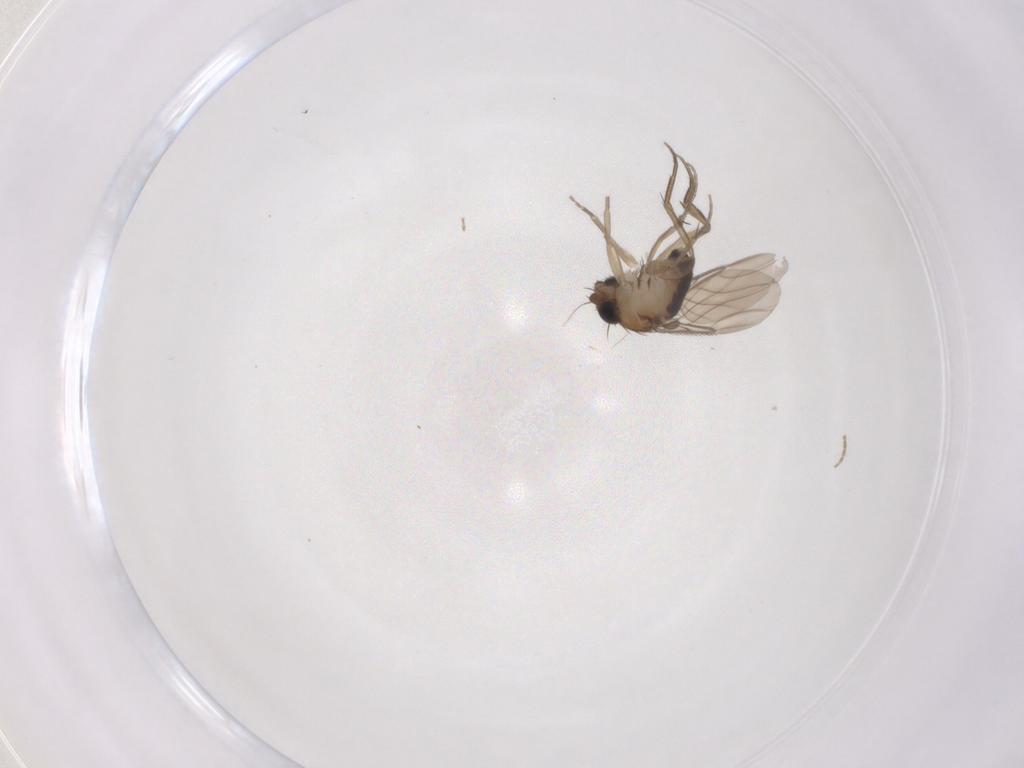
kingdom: Animalia
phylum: Arthropoda
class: Insecta
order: Diptera
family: Phoridae
